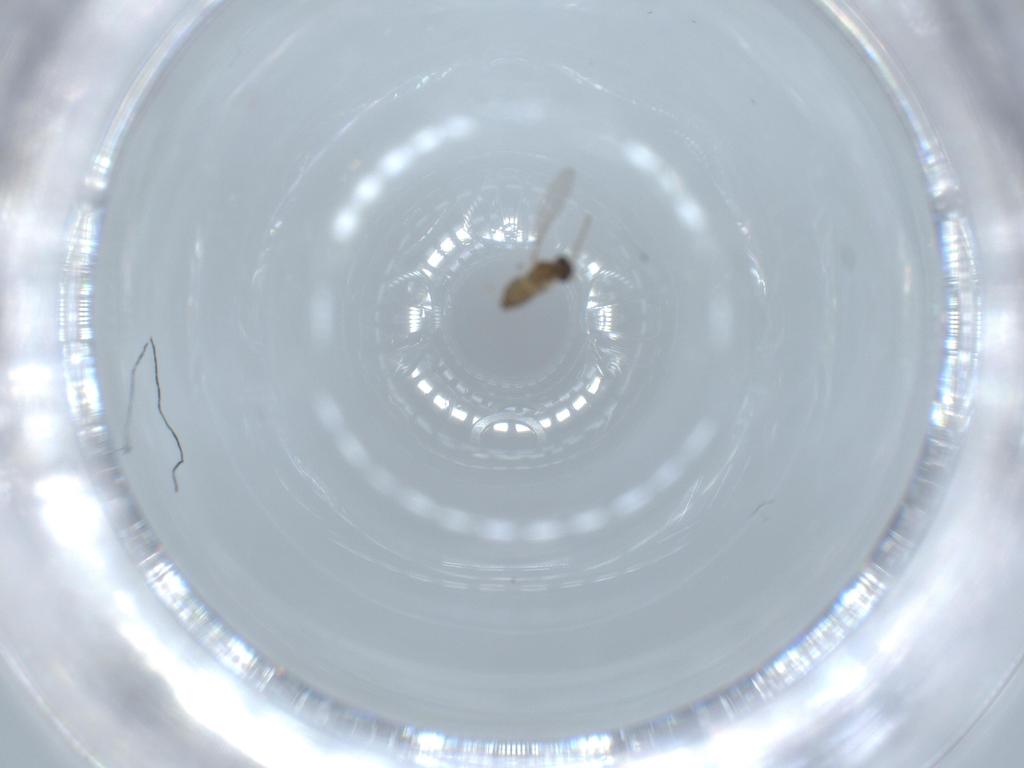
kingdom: Animalia
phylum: Arthropoda
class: Insecta
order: Diptera
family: Cecidomyiidae
